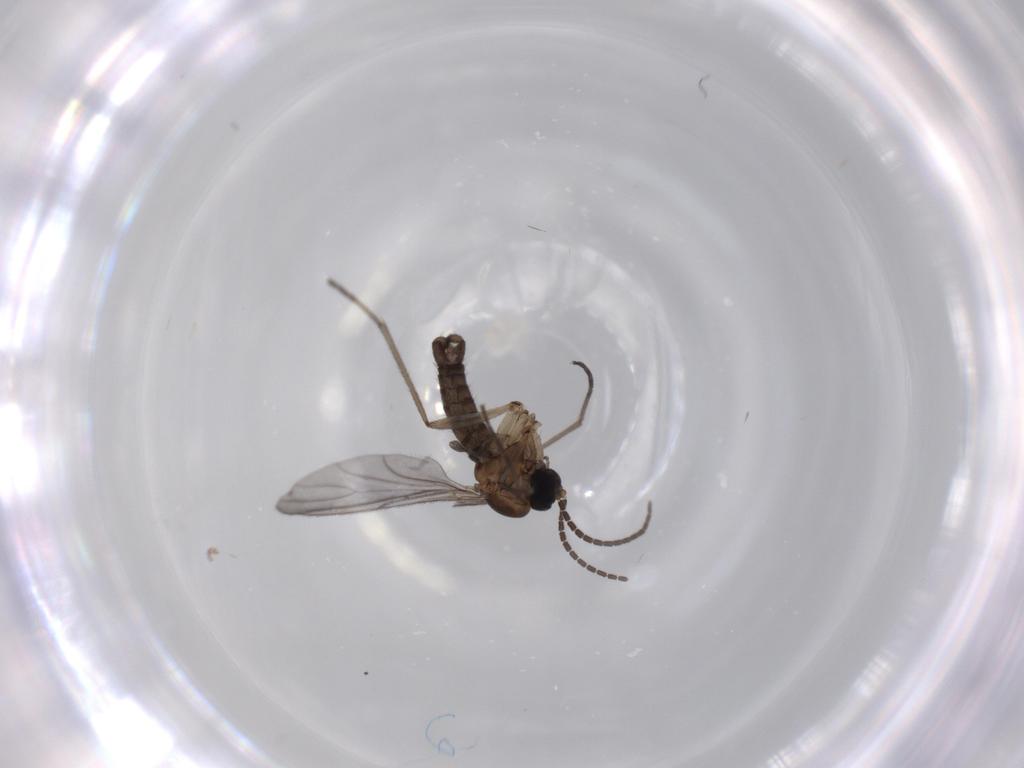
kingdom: Animalia
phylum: Arthropoda
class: Insecta
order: Diptera
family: Sciaridae
